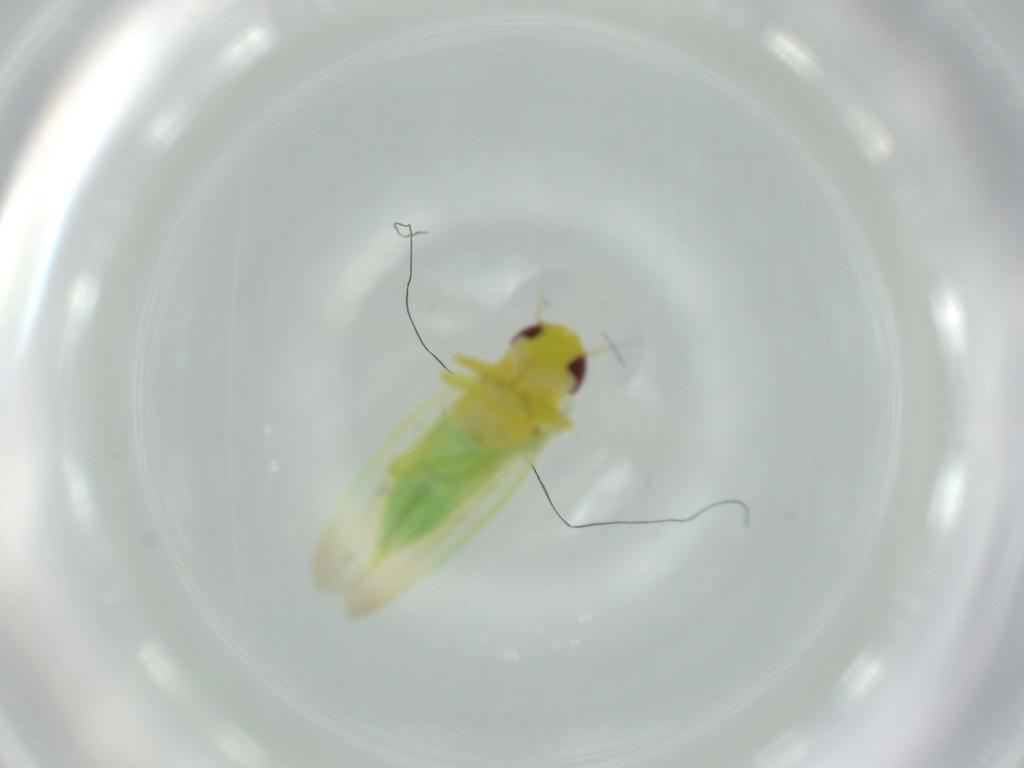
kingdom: Animalia
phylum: Arthropoda
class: Insecta
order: Hemiptera
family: Cicadellidae
